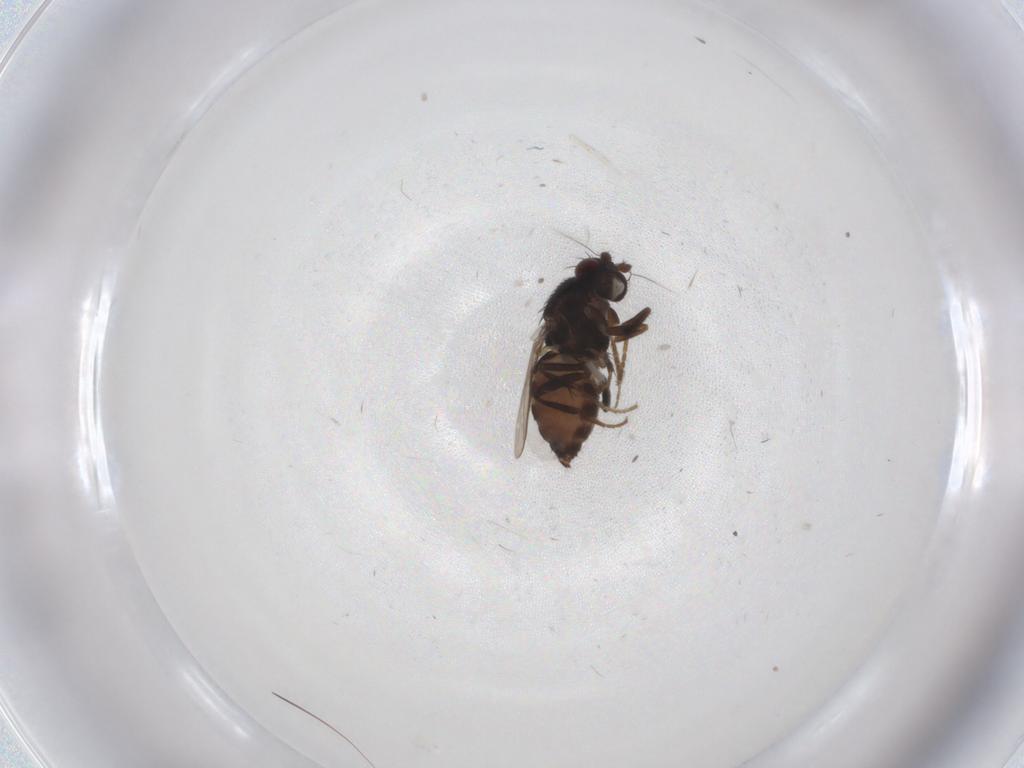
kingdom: Animalia
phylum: Arthropoda
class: Insecta
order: Diptera
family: Sphaeroceridae
